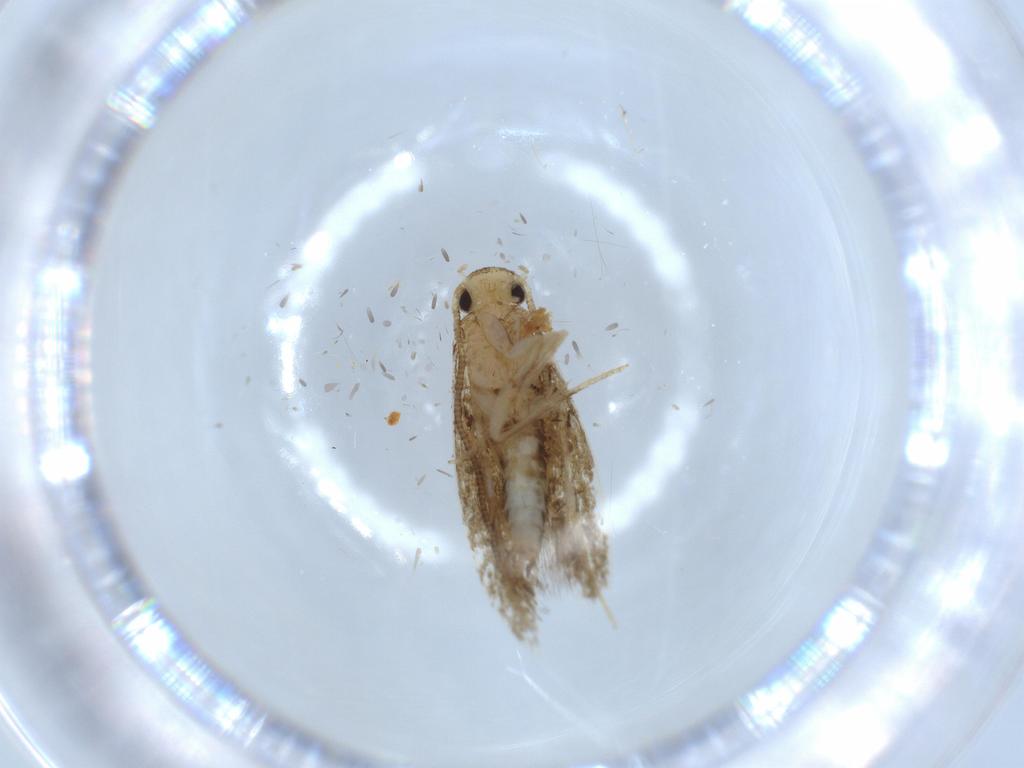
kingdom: Animalia
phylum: Arthropoda
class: Insecta
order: Lepidoptera
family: Tineidae
